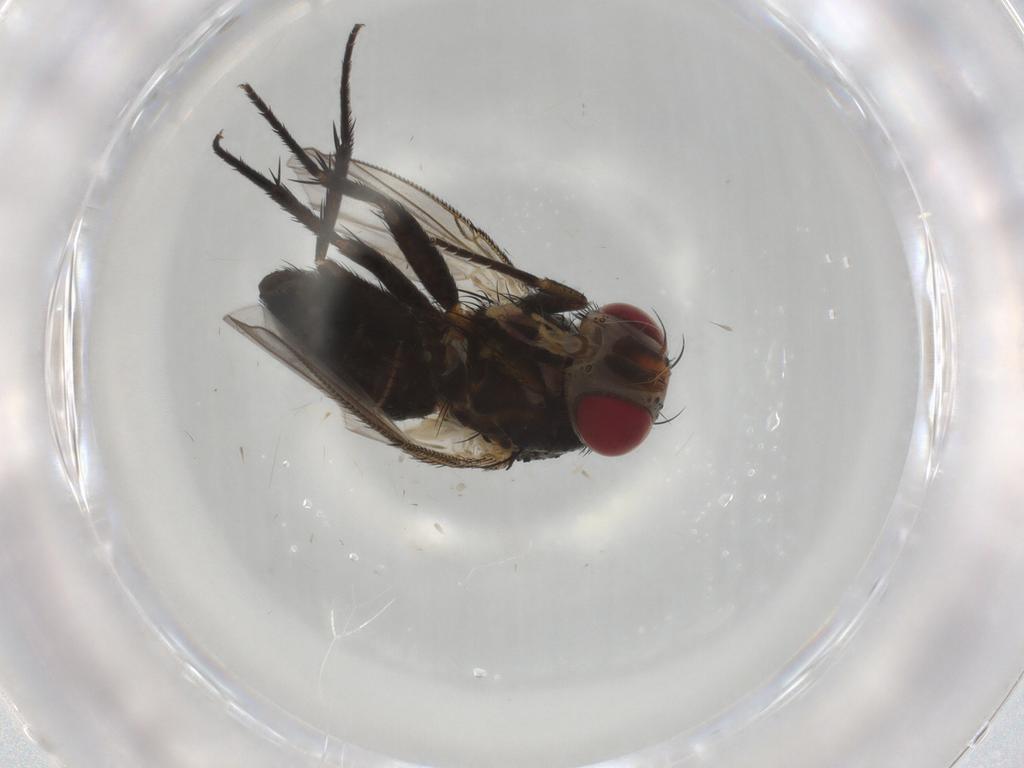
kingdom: Animalia
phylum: Arthropoda
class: Insecta
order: Diptera
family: Tachinidae
